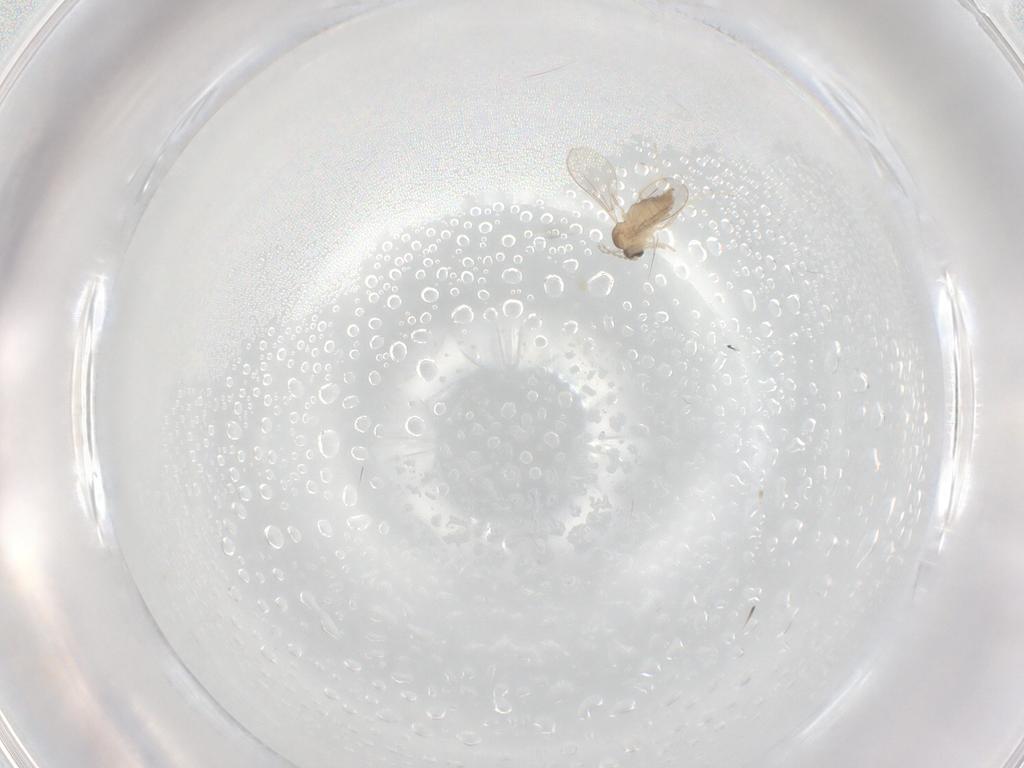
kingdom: Animalia
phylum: Arthropoda
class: Insecta
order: Diptera
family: Cecidomyiidae
